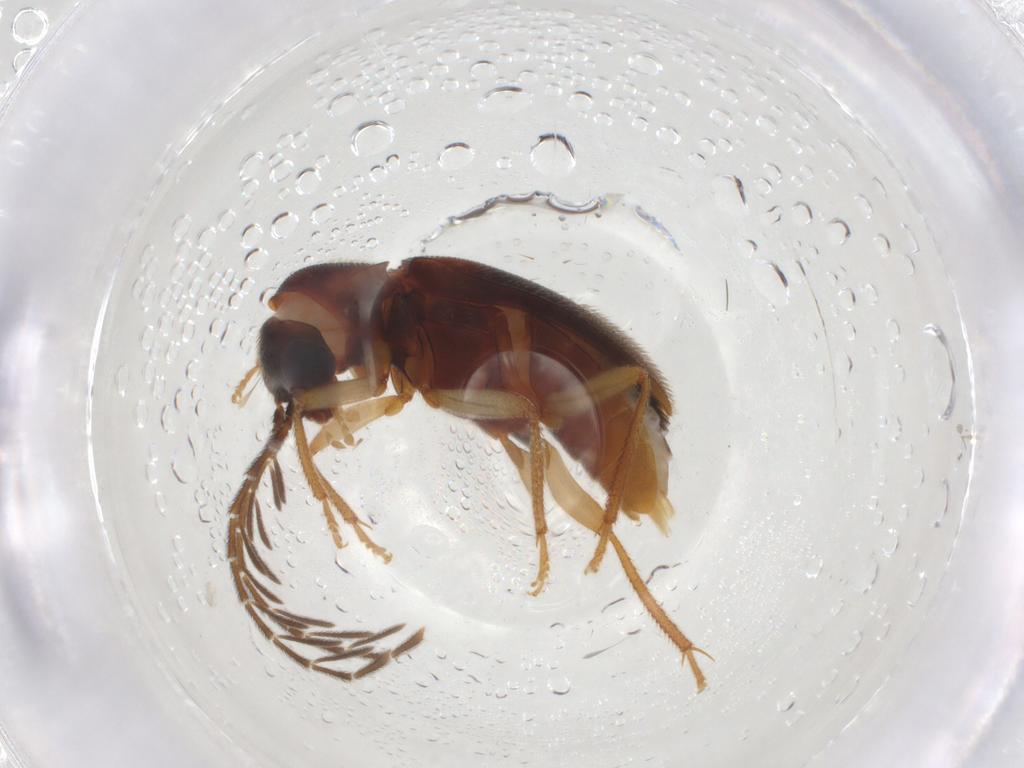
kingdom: Animalia
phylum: Arthropoda
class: Insecta
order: Coleoptera
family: Ptilodactylidae
